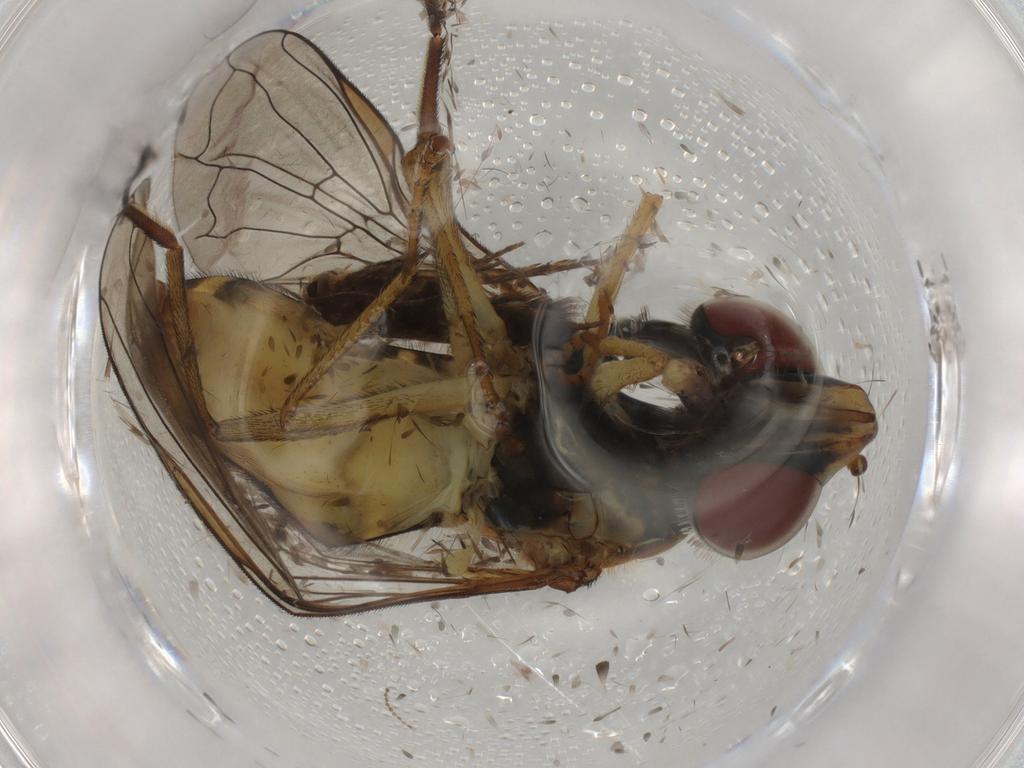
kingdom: Animalia
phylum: Arthropoda
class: Insecta
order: Diptera
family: Syrphidae
